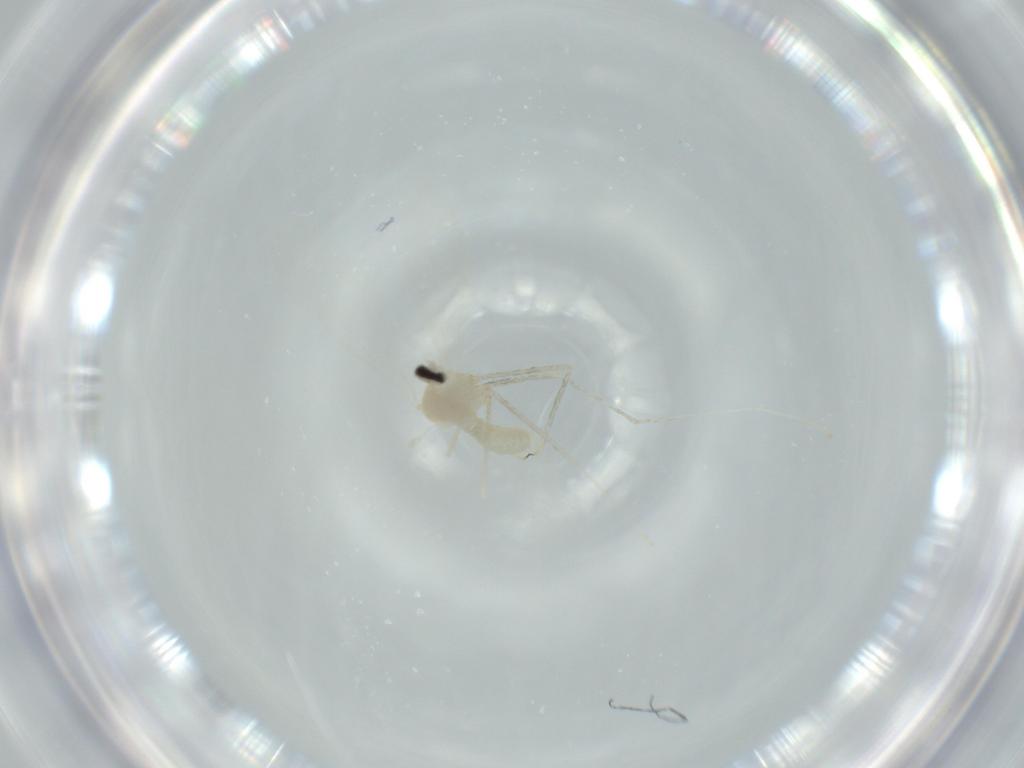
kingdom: Animalia
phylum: Arthropoda
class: Insecta
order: Diptera
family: Cecidomyiidae
